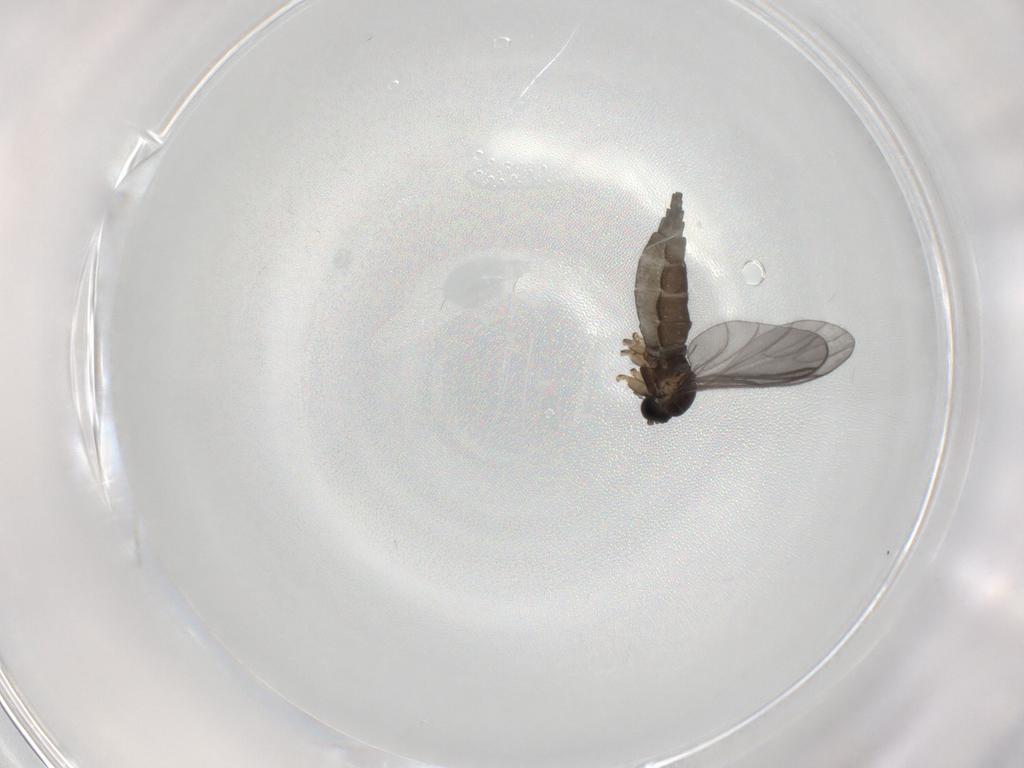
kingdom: Animalia
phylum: Arthropoda
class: Insecta
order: Diptera
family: Sciaridae
